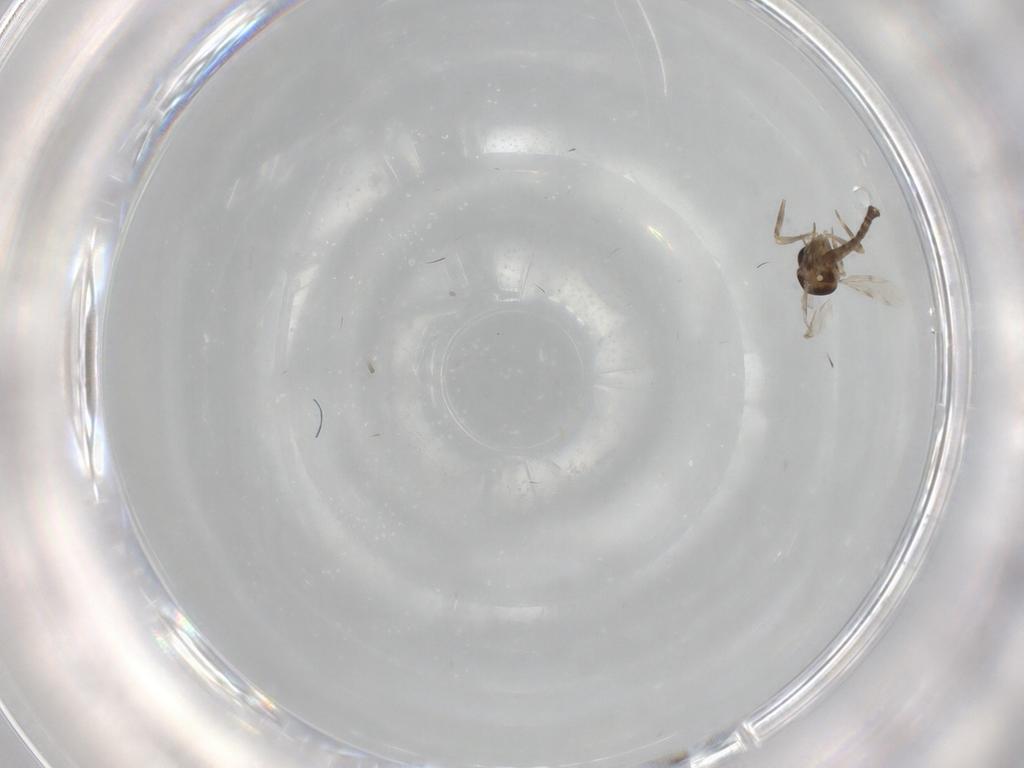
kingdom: Animalia
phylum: Arthropoda
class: Insecta
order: Diptera
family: Ceratopogonidae
